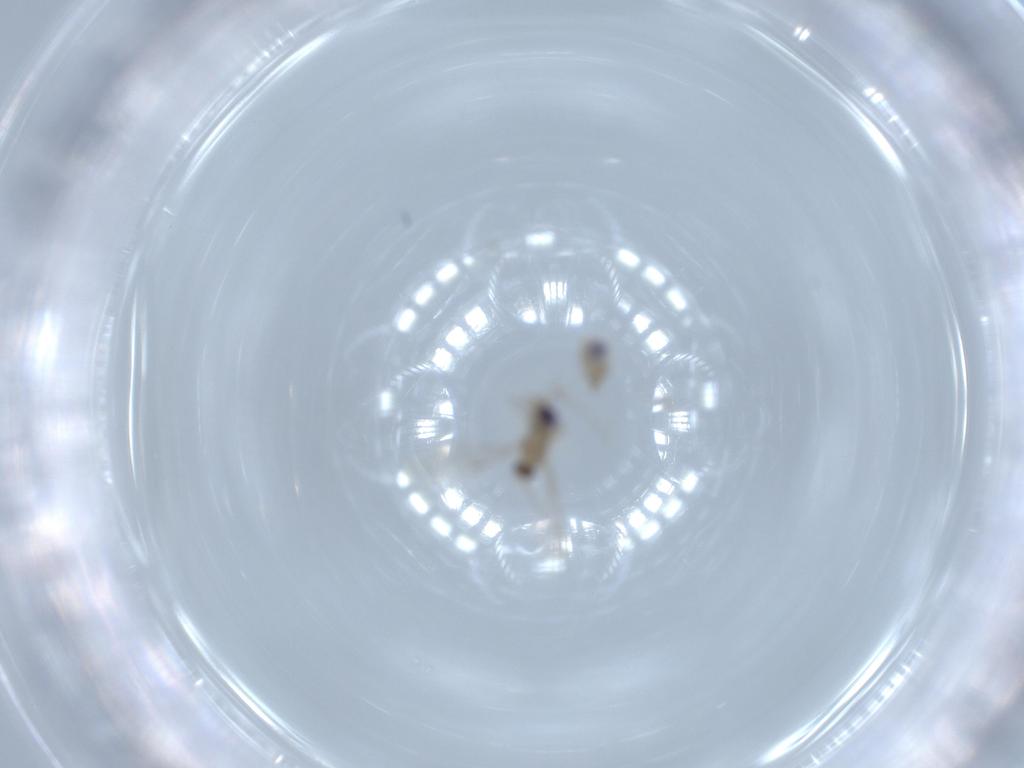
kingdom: Animalia
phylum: Arthropoda
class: Insecta
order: Diptera
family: Cecidomyiidae
